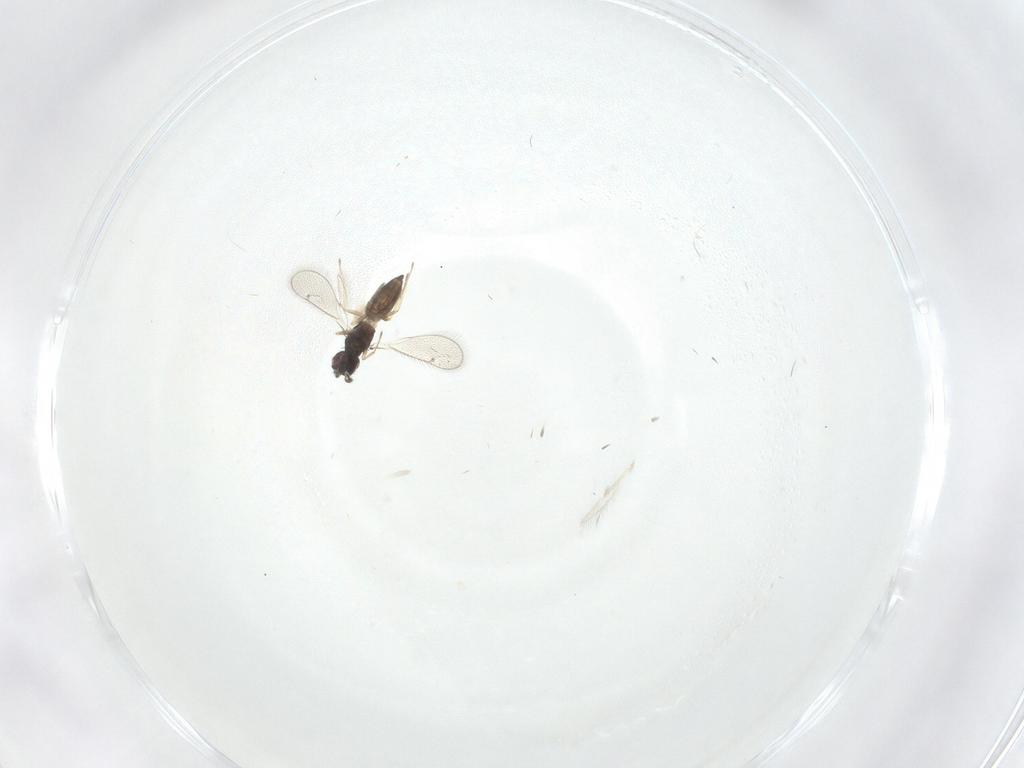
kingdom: Animalia
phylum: Arthropoda
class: Insecta
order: Hymenoptera
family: Eulophidae
